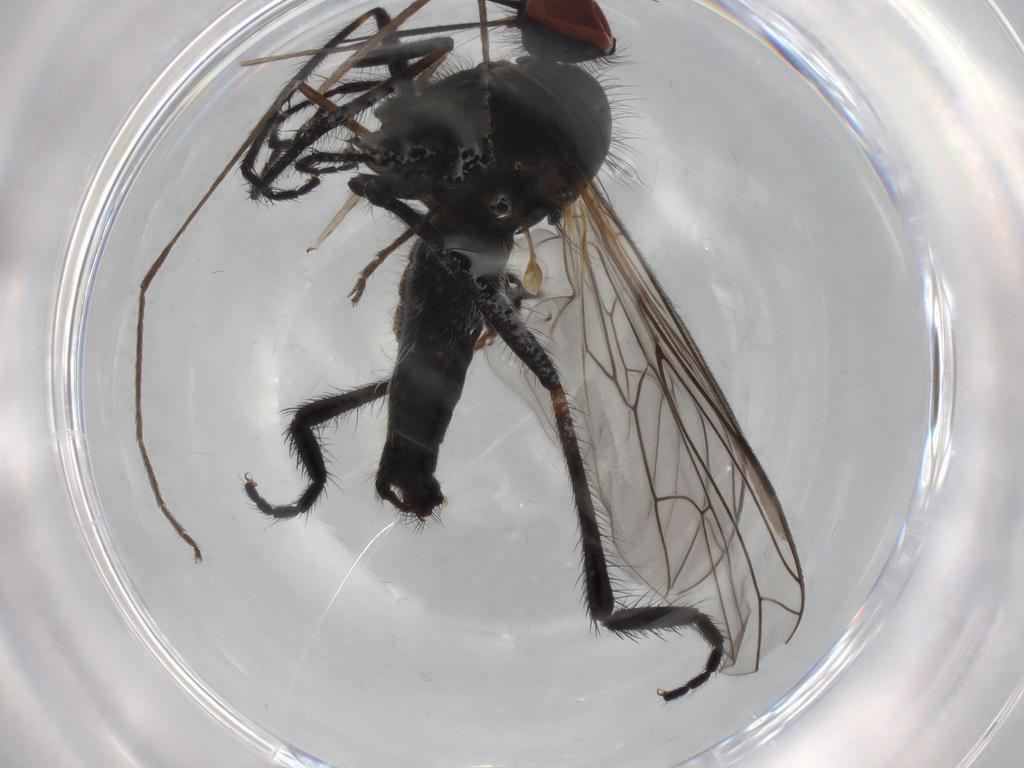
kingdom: Animalia
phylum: Arthropoda
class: Insecta
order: Diptera
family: Empididae
